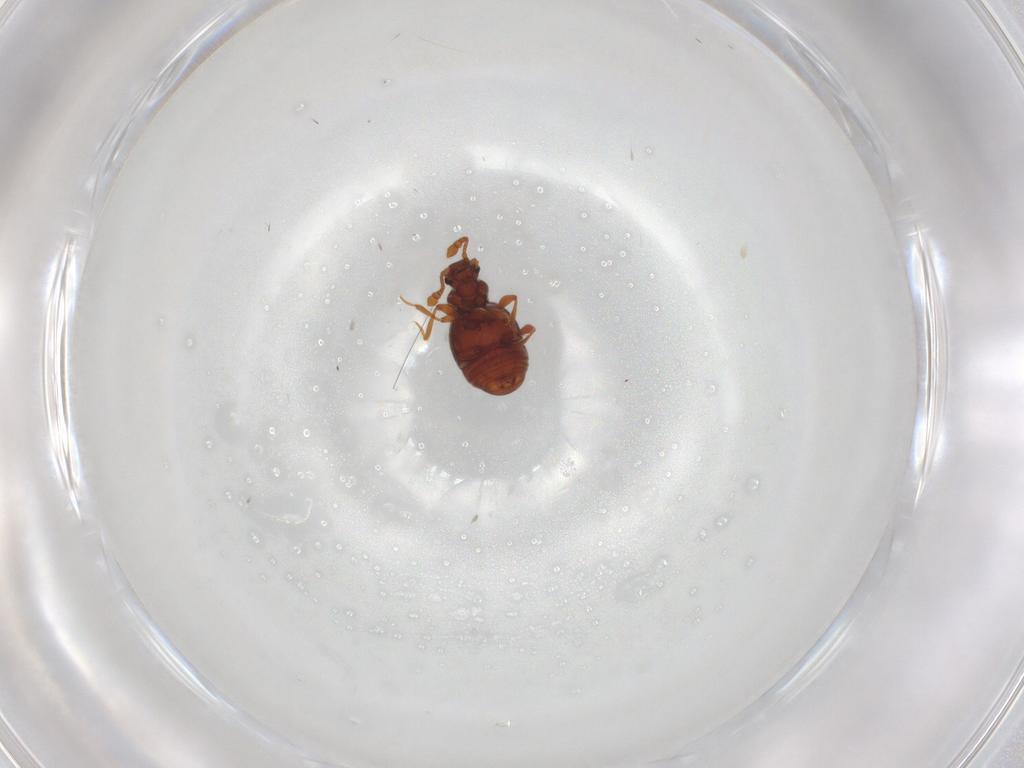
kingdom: Animalia
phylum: Arthropoda
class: Insecta
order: Coleoptera
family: Staphylinidae
